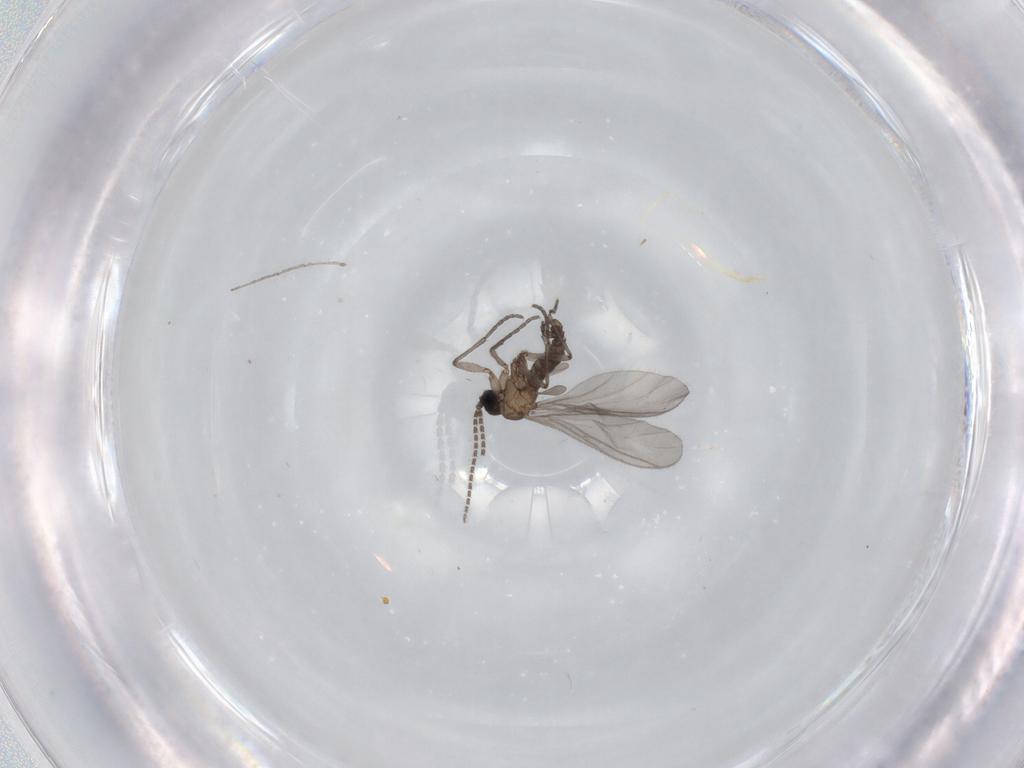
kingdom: Animalia
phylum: Arthropoda
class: Insecta
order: Diptera
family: Sciaridae
